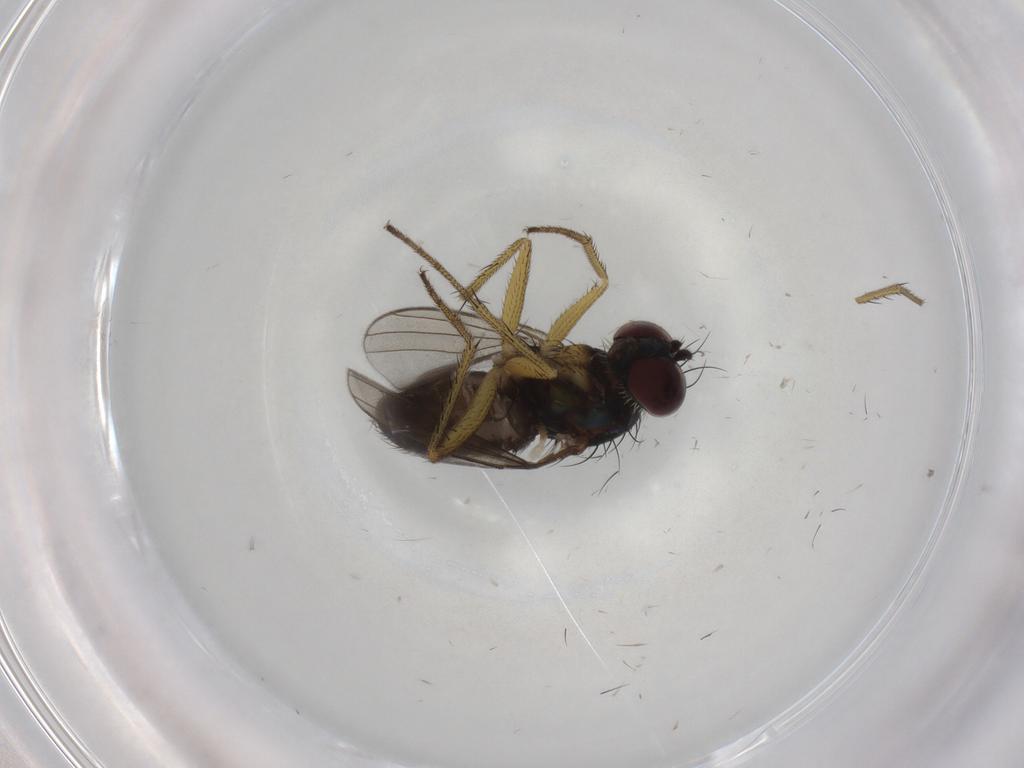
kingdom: Animalia
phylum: Arthropoda
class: Insecta
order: Diptera
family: Dolichopodidae
